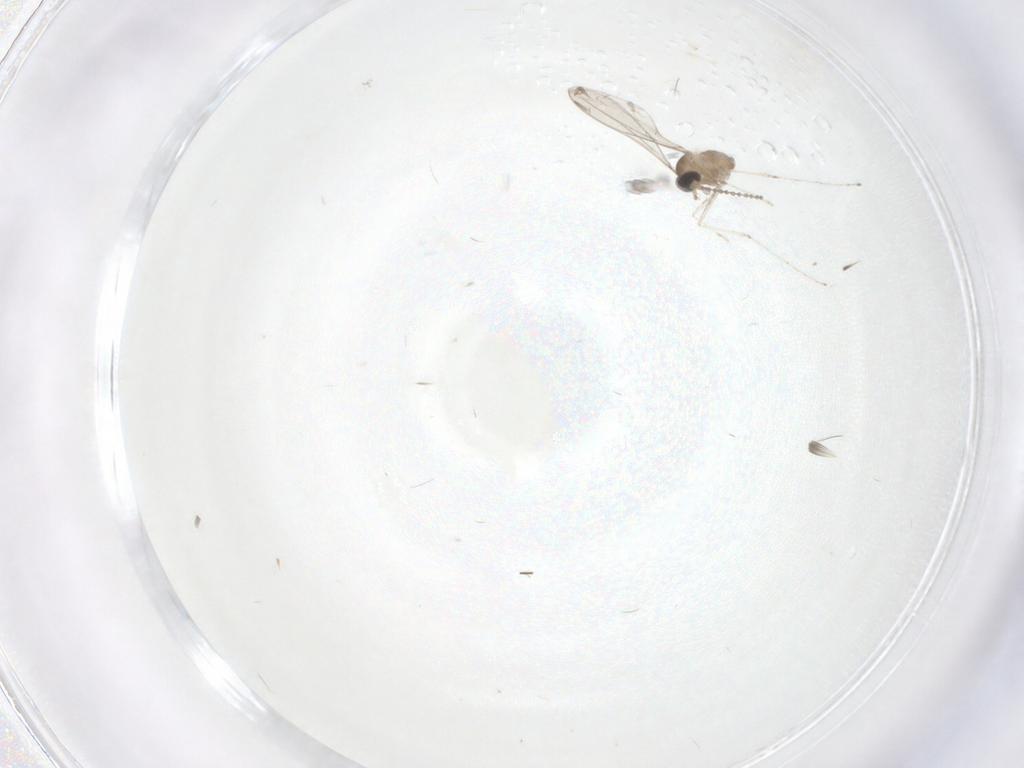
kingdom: Animalia
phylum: Arthropoda
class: Insecta
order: Diptera
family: Cecidomyiidae
